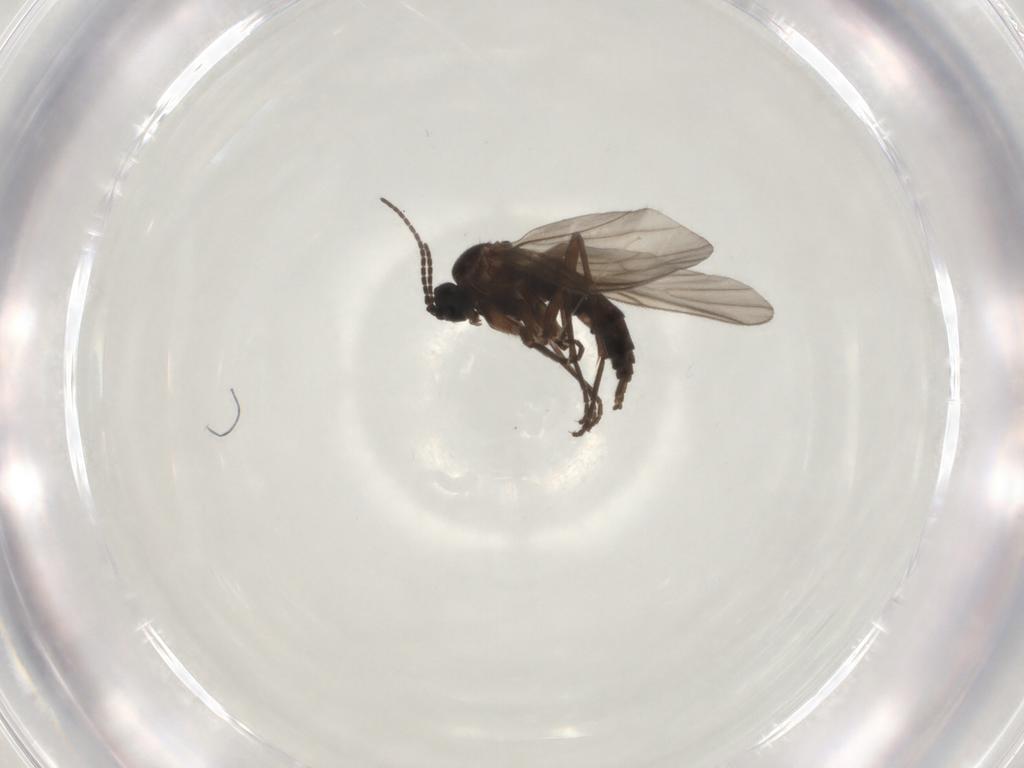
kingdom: Animalia
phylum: Arthropoda
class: Insecta
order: Diptera
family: Sciaridae
